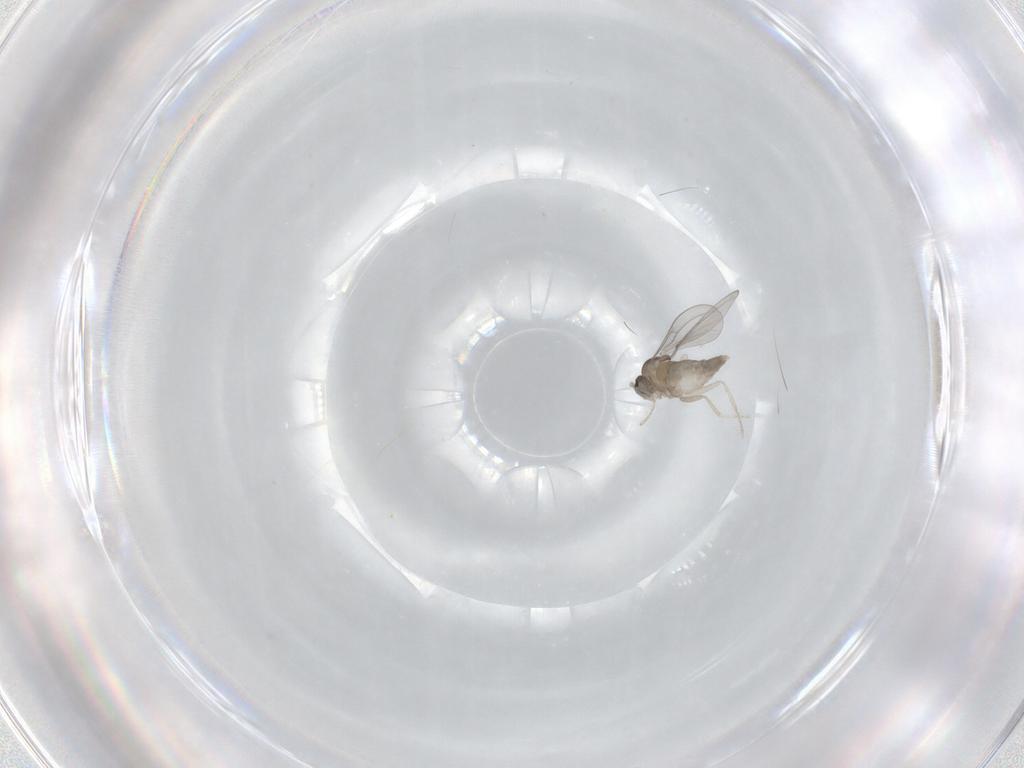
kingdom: Animalia
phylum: Arthropoda
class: Insecta
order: Diptera
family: Cecidomyiidae
